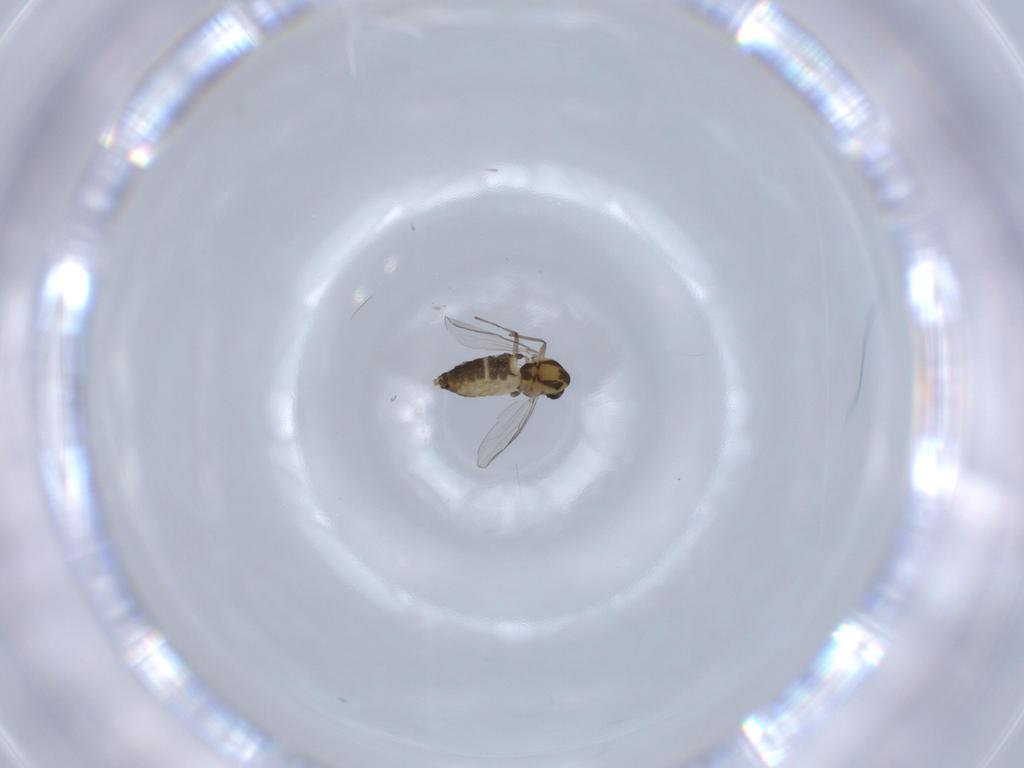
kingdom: Animalia
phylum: Arthropoda
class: Insecta
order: Diptera
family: Chironomidae
